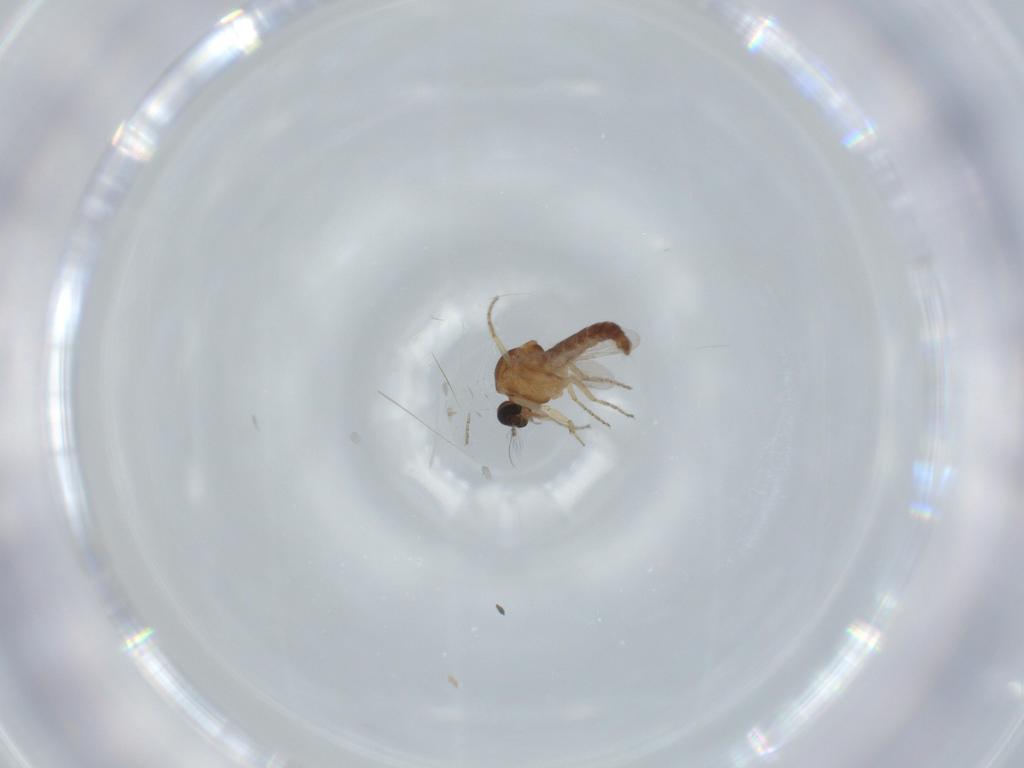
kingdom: Animalia
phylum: Arthropoda
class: Insecta
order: Diptera
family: Ceratopogonidae
